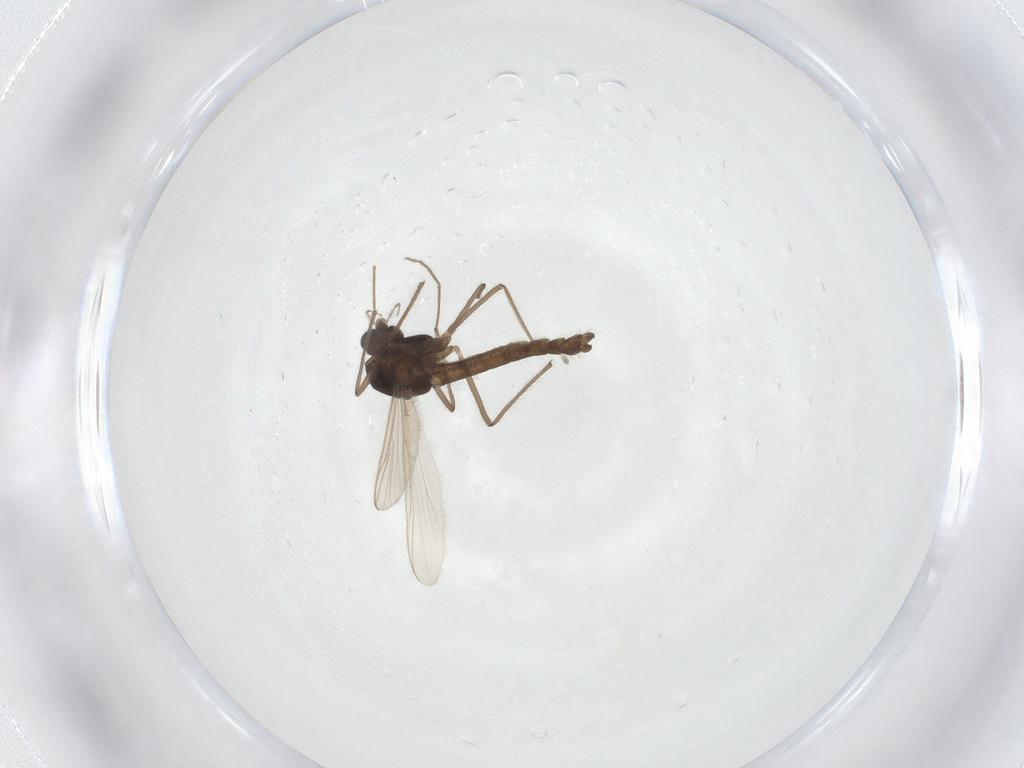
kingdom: Animalia
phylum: Arthropoda
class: Insecta
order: Diptera
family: Chironomidae
